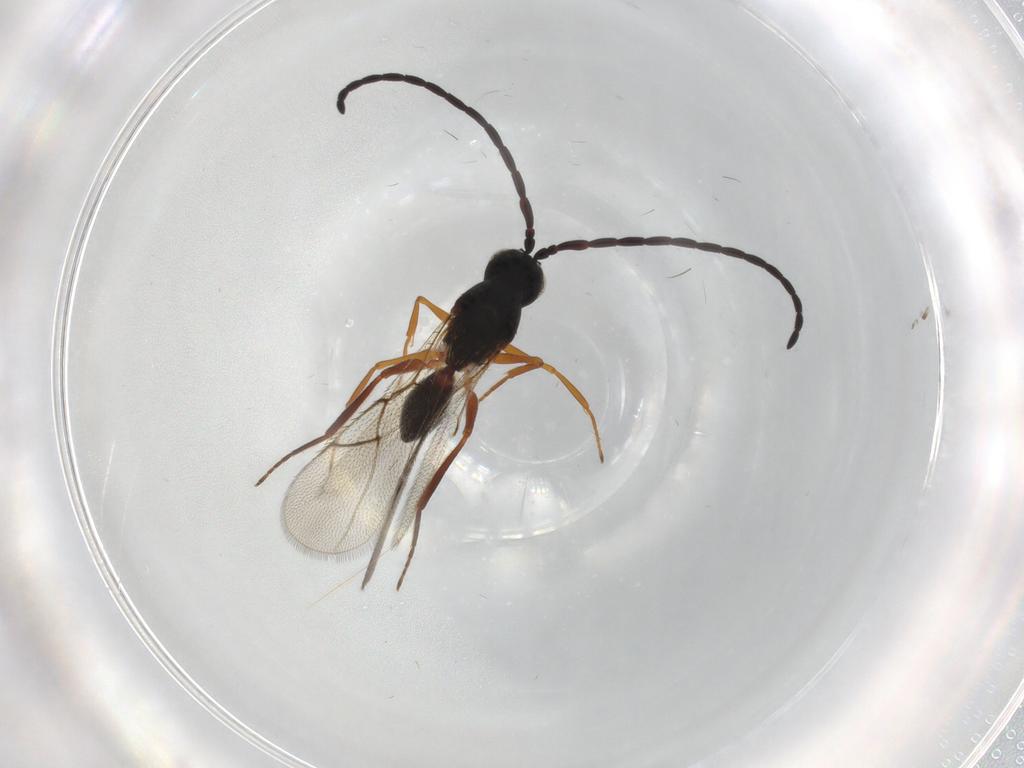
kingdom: Animalia
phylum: Arthropoda
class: Insecta
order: Hymenoptera
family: Figitidae
